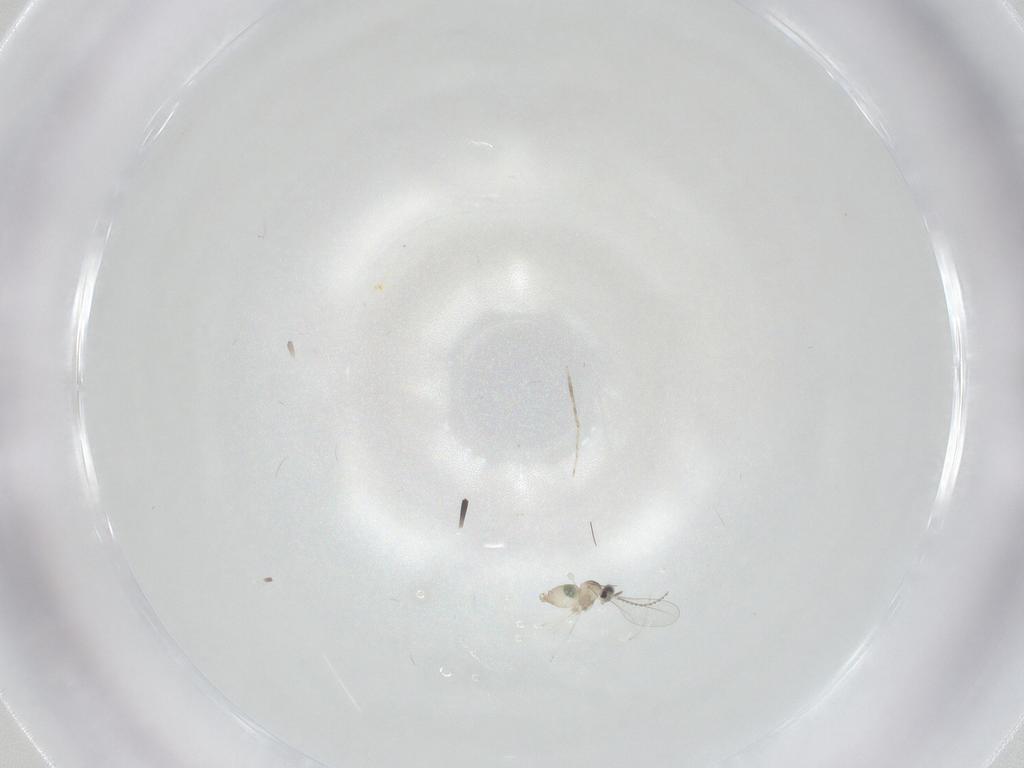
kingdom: Animalia
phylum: Arthropoda
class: Insecta
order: Diptera
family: Cecidomyiidae
